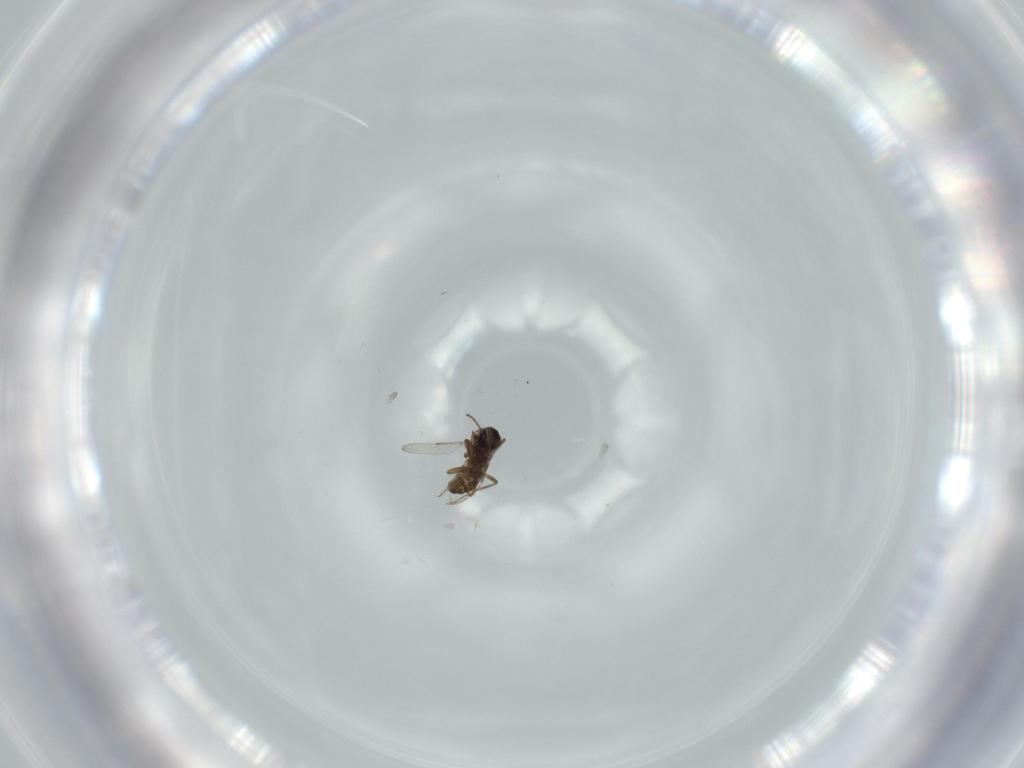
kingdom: Animalia
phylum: Arthropoda
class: Insecta
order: Diptera
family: Ceratopogonidae
